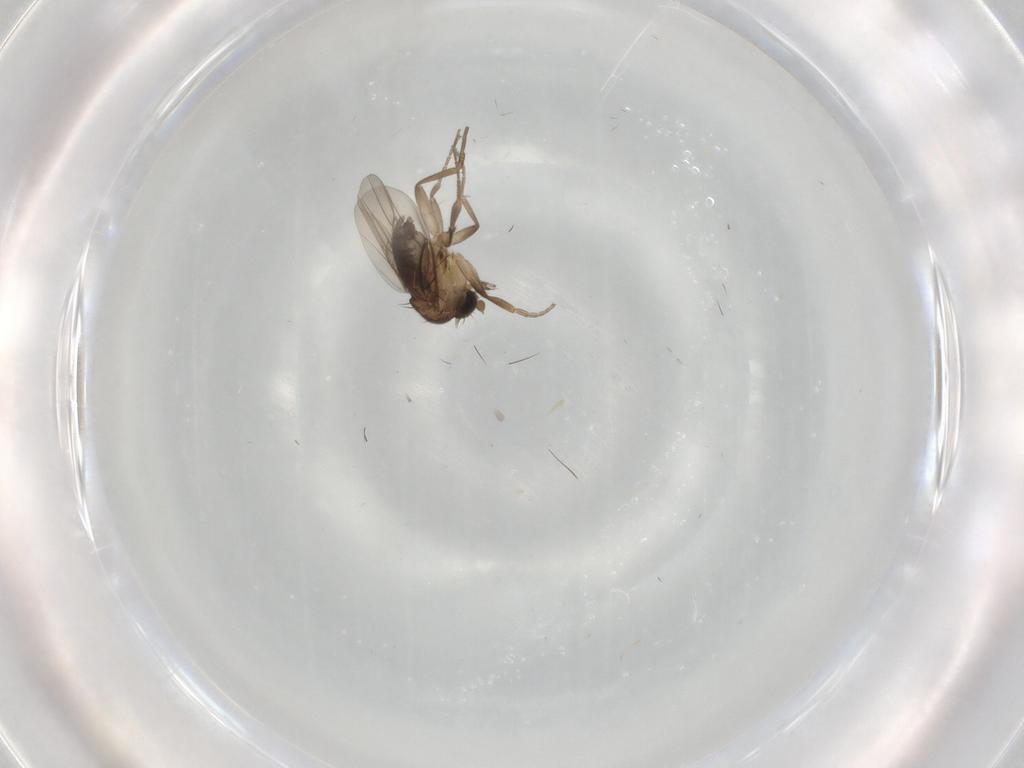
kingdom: Animalia
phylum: Arthropoda
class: Insecta
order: Diptera
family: Phoridae
